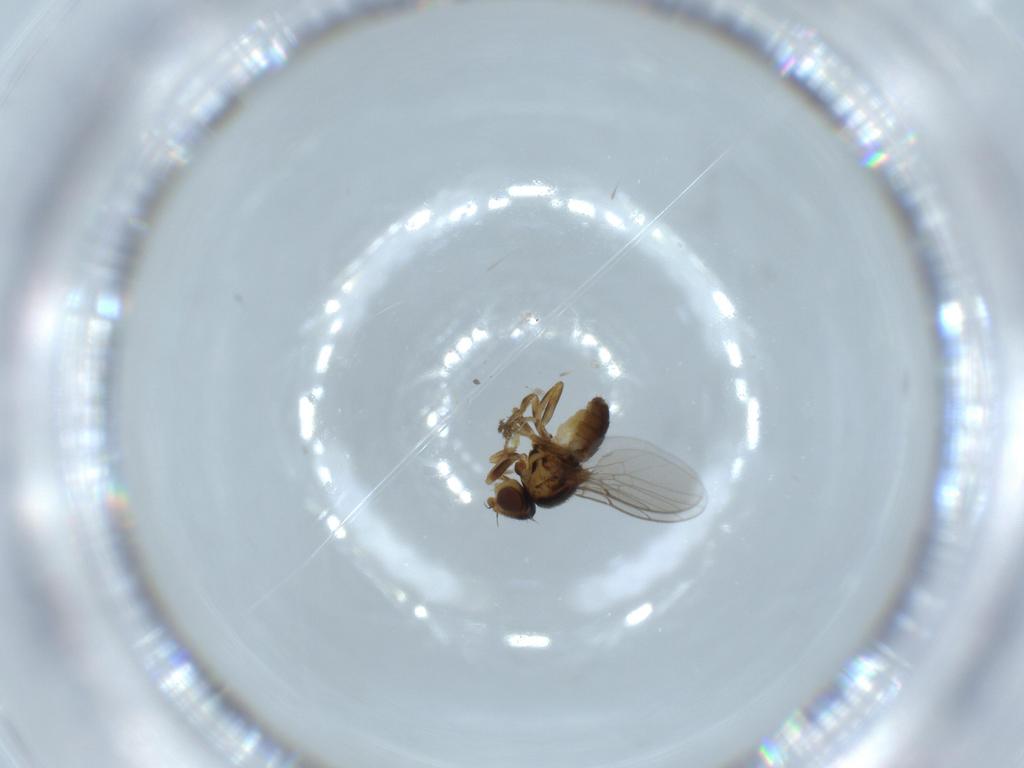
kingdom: Animalia
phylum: Arthropoda
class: Insecta
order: Diptera
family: Chloropidae
